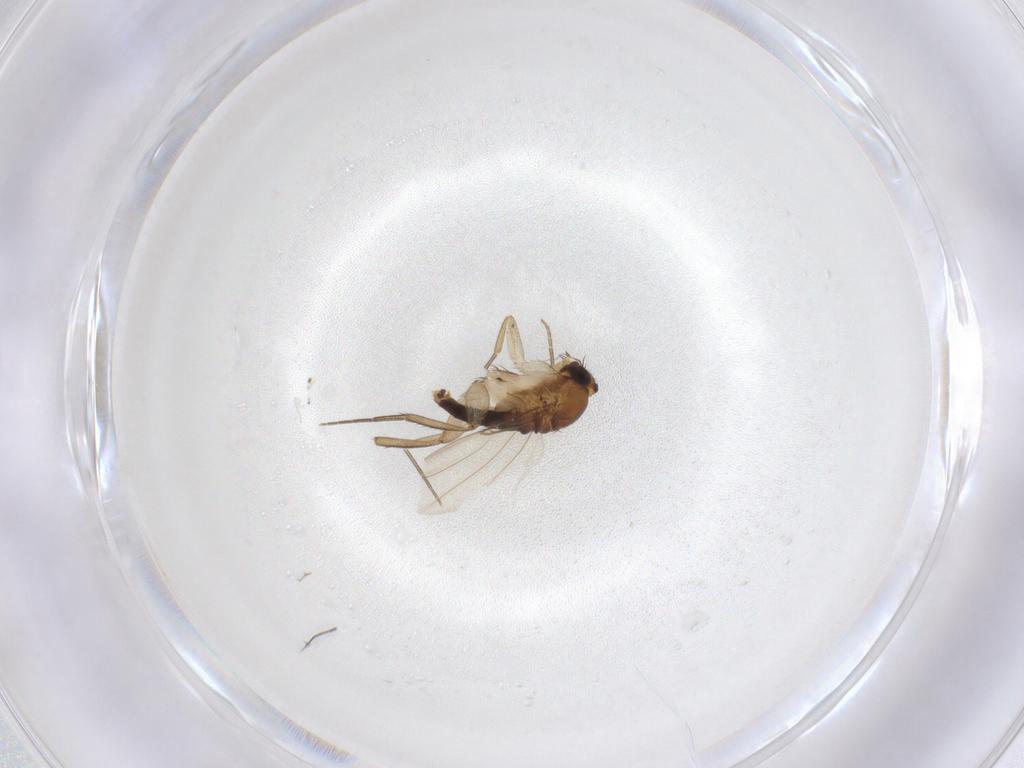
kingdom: Animalia
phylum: Arthropoda
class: Insecta
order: Diptera
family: Phoridae
